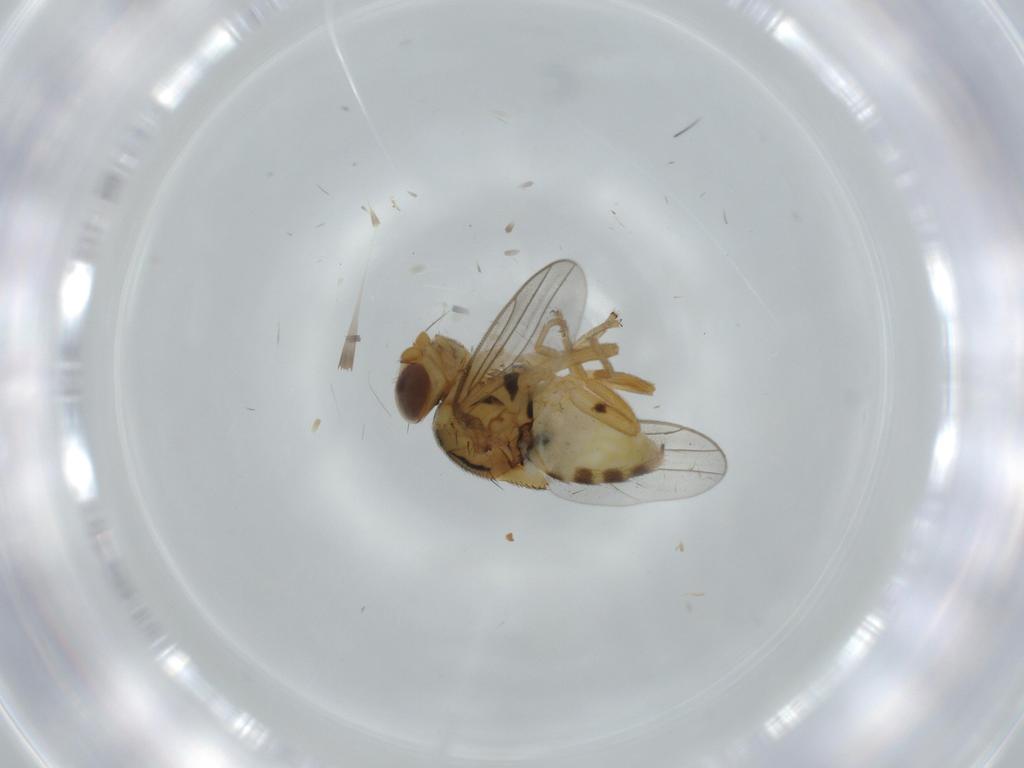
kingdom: Animalia
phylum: Arthropoda
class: Insecta
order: Diptera
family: Chloropidae
